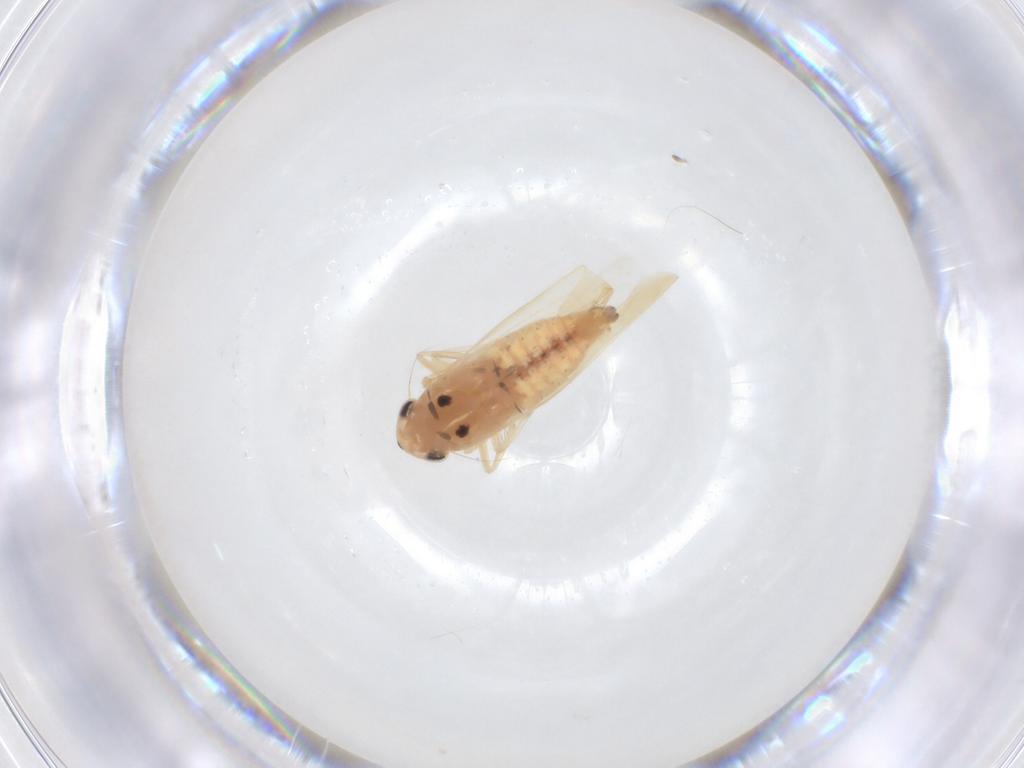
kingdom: Animalia
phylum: Arthropoda
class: Insecta
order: Hemiptera
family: Cicadellidae
